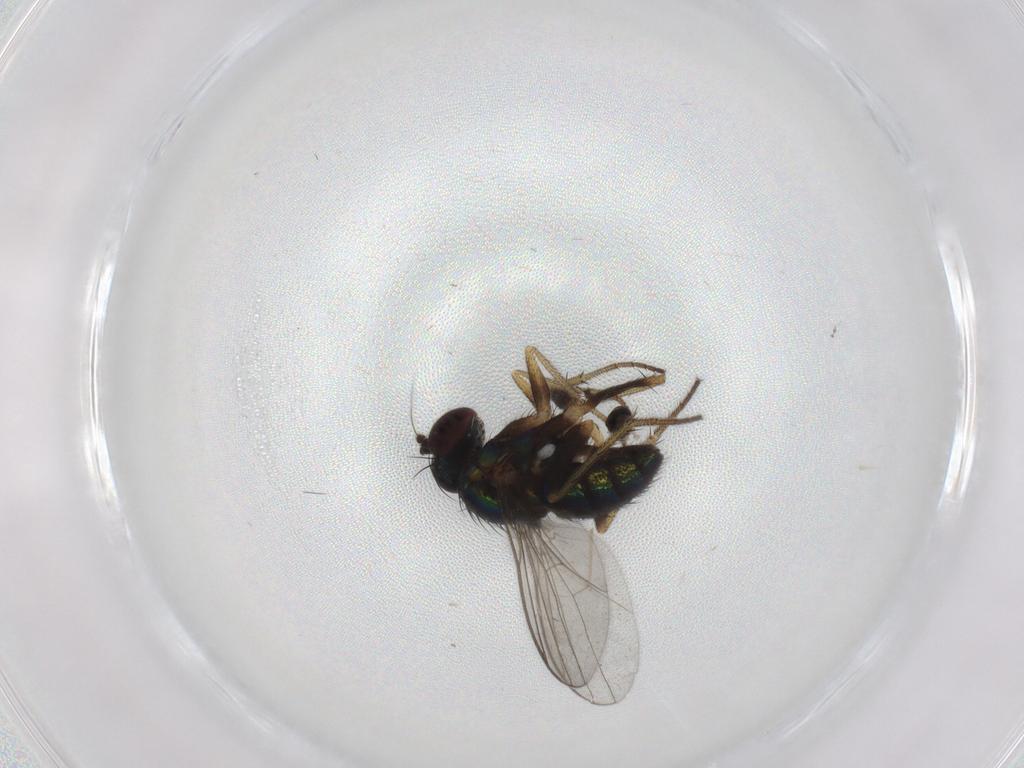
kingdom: Animalia
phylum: Arthropoda
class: Insecta
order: Diptera
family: Sciaridae
